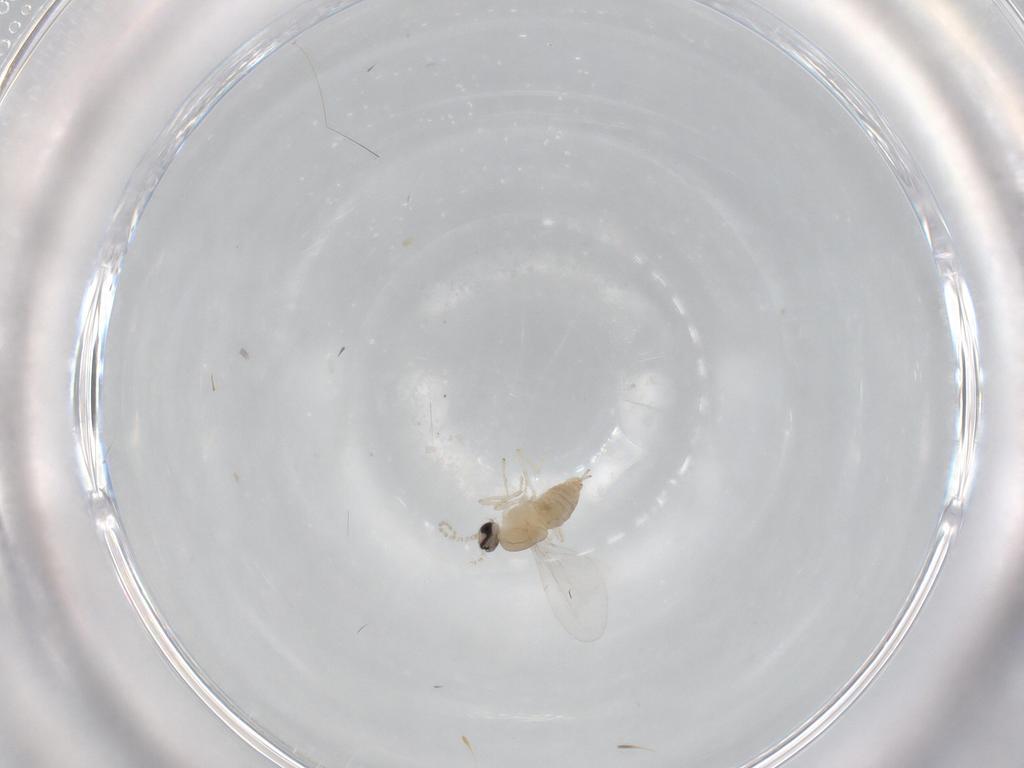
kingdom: Animalia
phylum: Arthropoda
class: Insecta
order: Diptera
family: Cecidomyiidae
